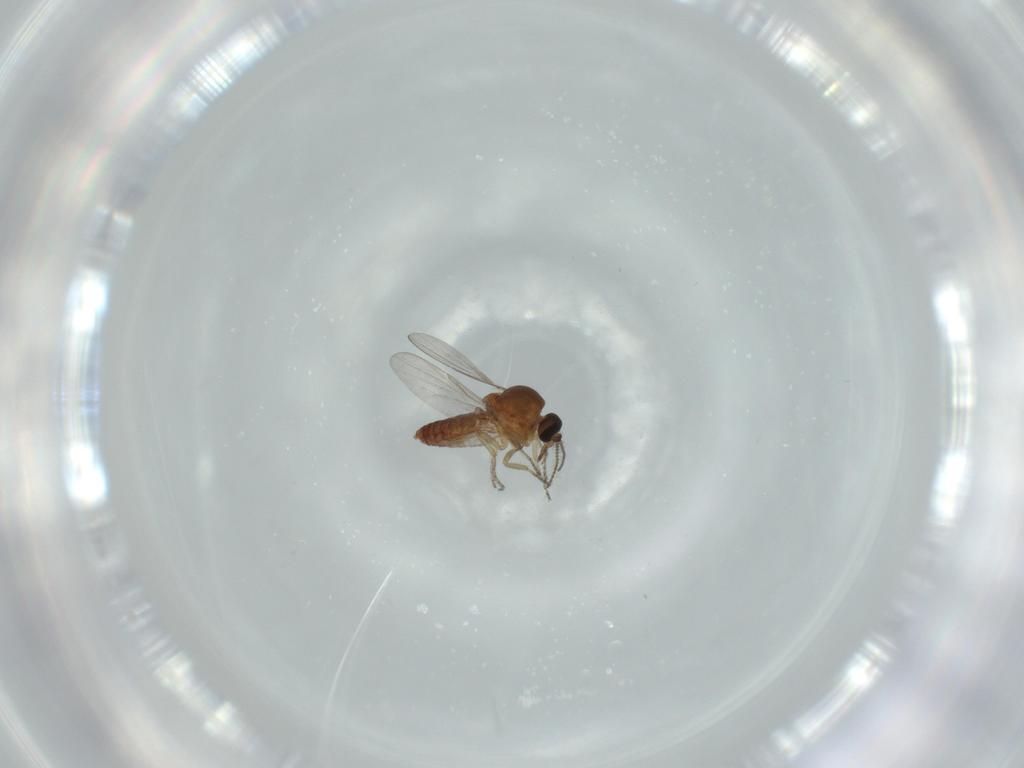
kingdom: Animalia
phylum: Arthropoda
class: Insecta
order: Diptera
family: Ceratopogonidae
